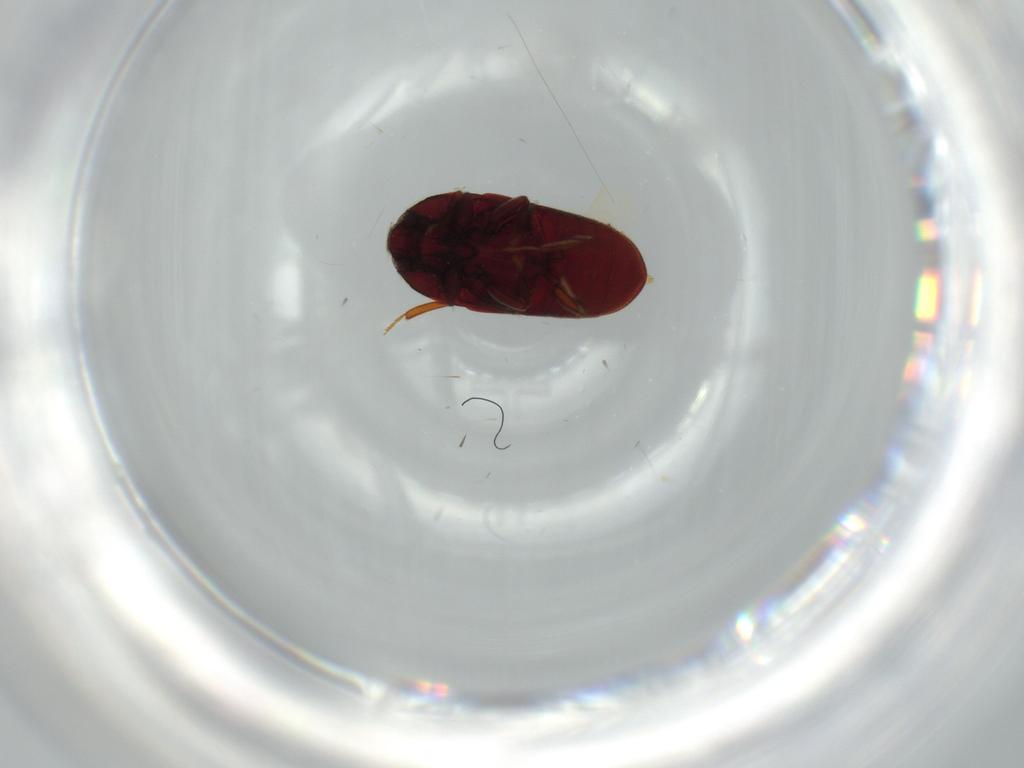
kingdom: Animalia
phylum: Arthropoda
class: Insecta
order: Coleoptera
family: Throscidae
